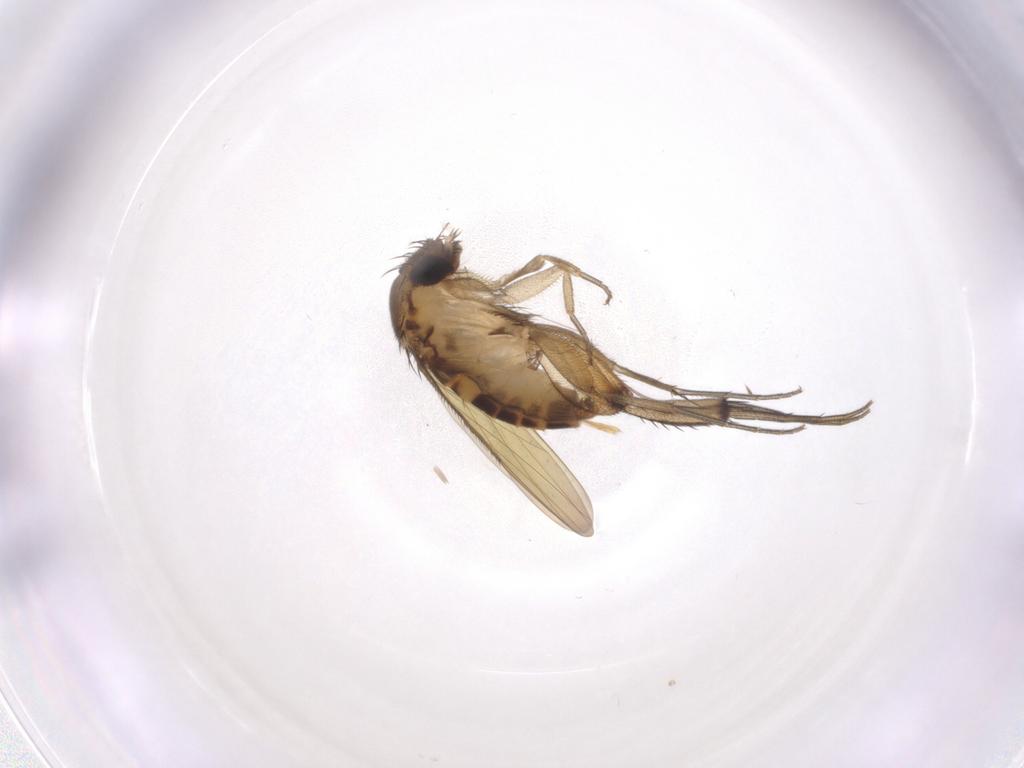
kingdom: Animalia
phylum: Arthropoda
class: Insecta
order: Diptera
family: Phoridae
